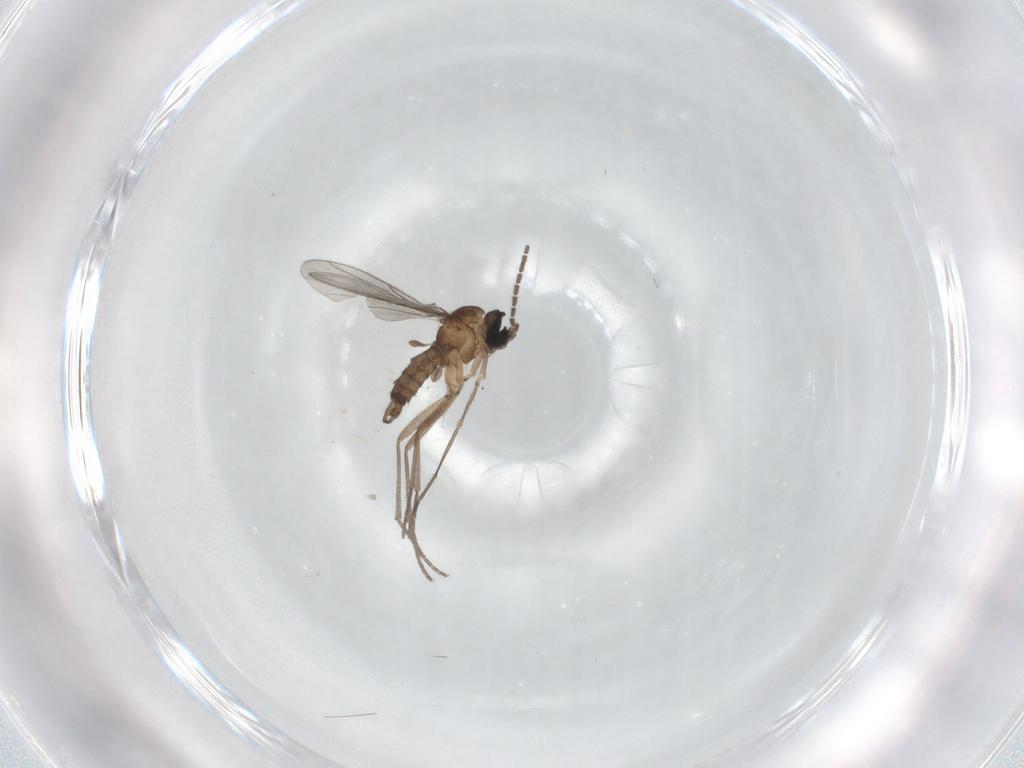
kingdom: Animalia
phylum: Arthropoda
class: Insecta
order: Diptera
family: Sciaridae
